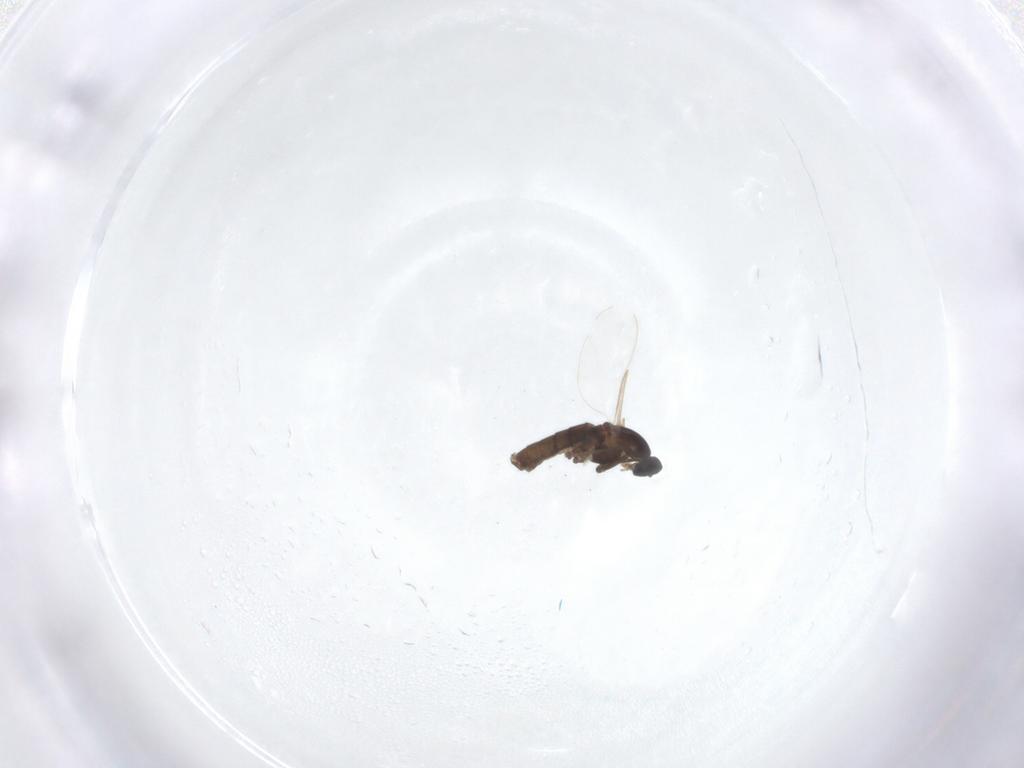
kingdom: Animalia
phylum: Arthropoda
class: Insecta
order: Diptera
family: Cecidomyiidae
